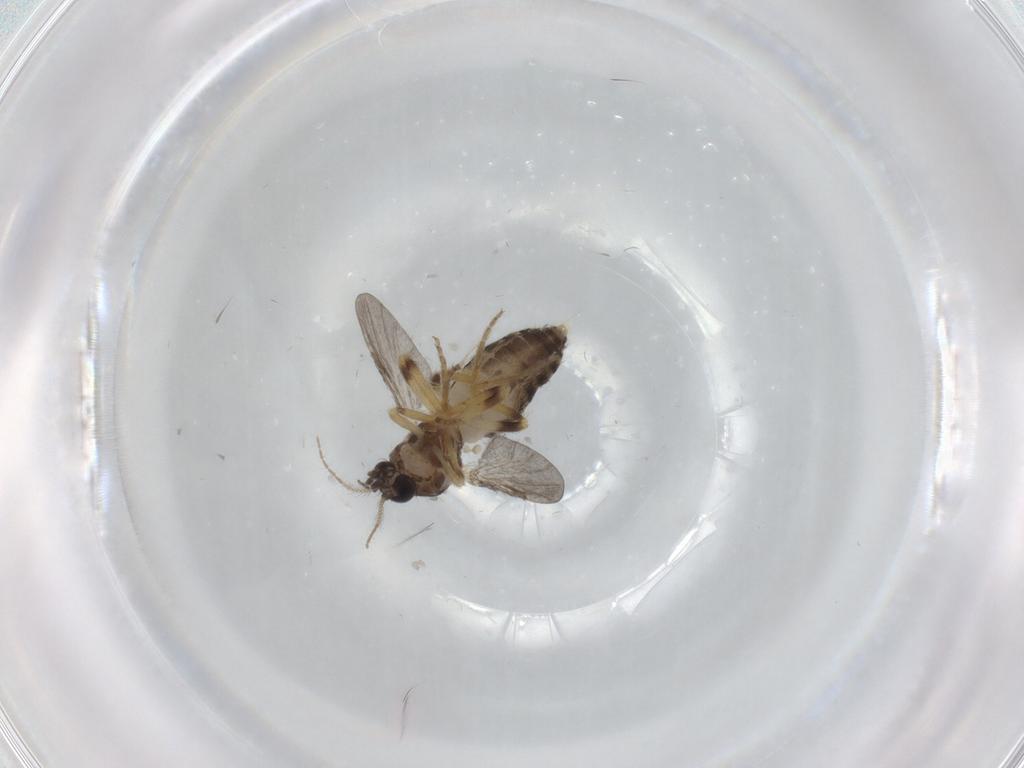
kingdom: Animalia
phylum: Arthropoda
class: Insecta
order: Diptera
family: Ceratopogonidae
